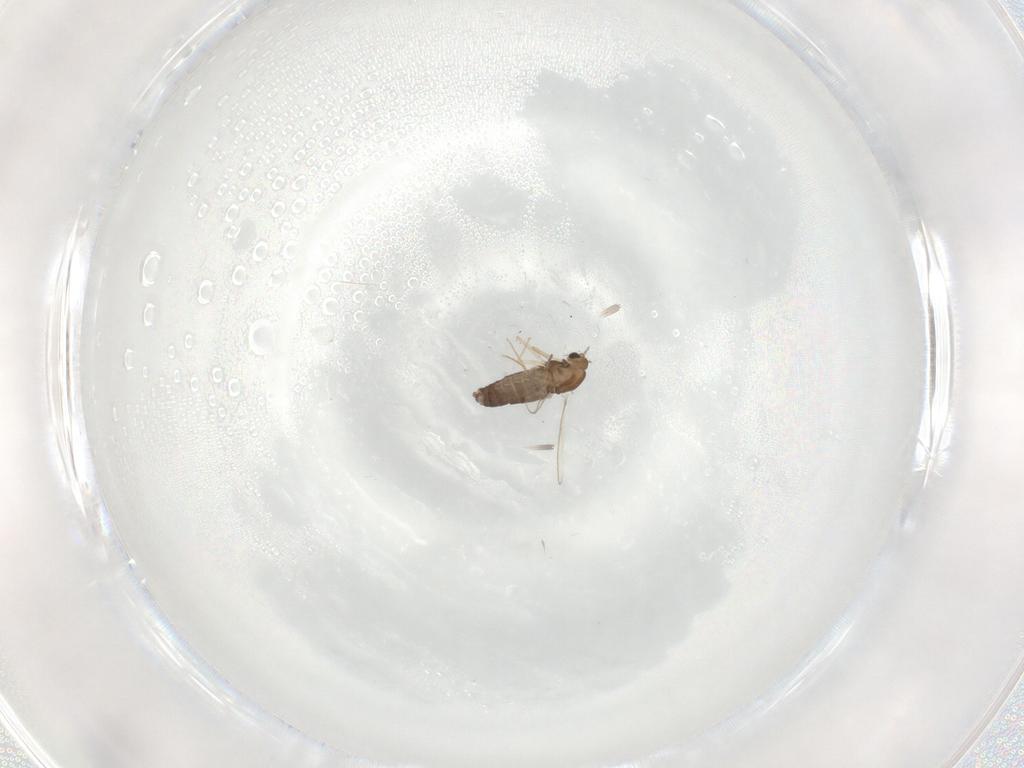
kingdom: Animalia
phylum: Arthropoda
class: Insecta
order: Diptera
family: Chironomidae
